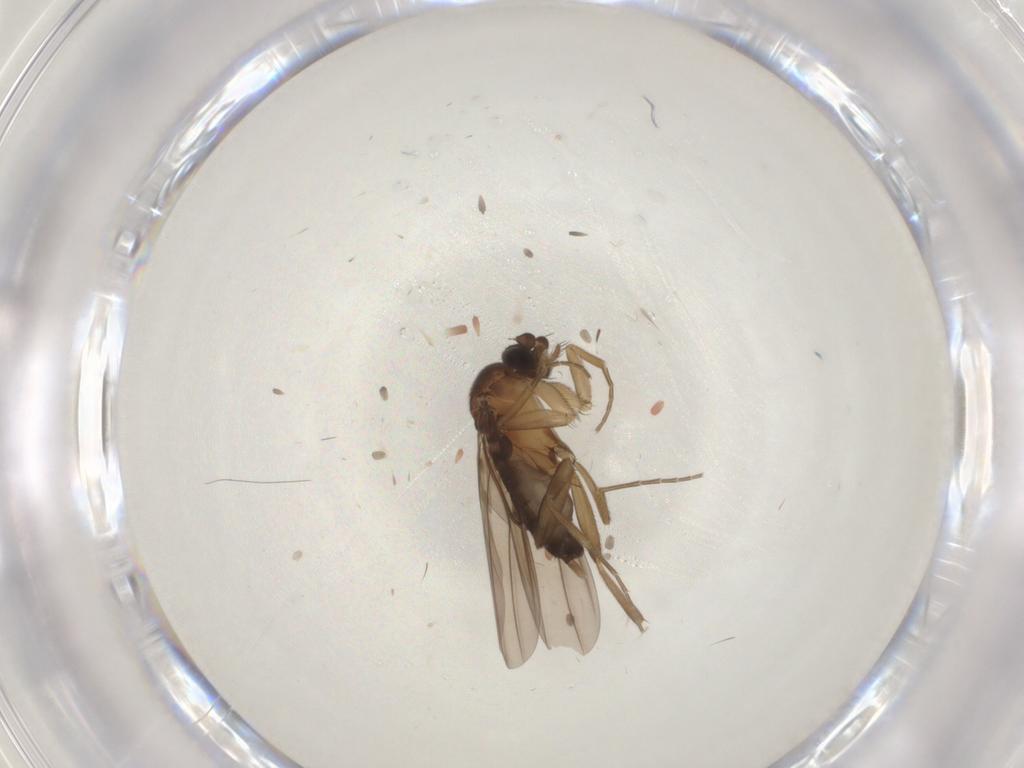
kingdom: Animalia
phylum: Arthropoda
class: Insecta
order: Diptera
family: Phoridae
